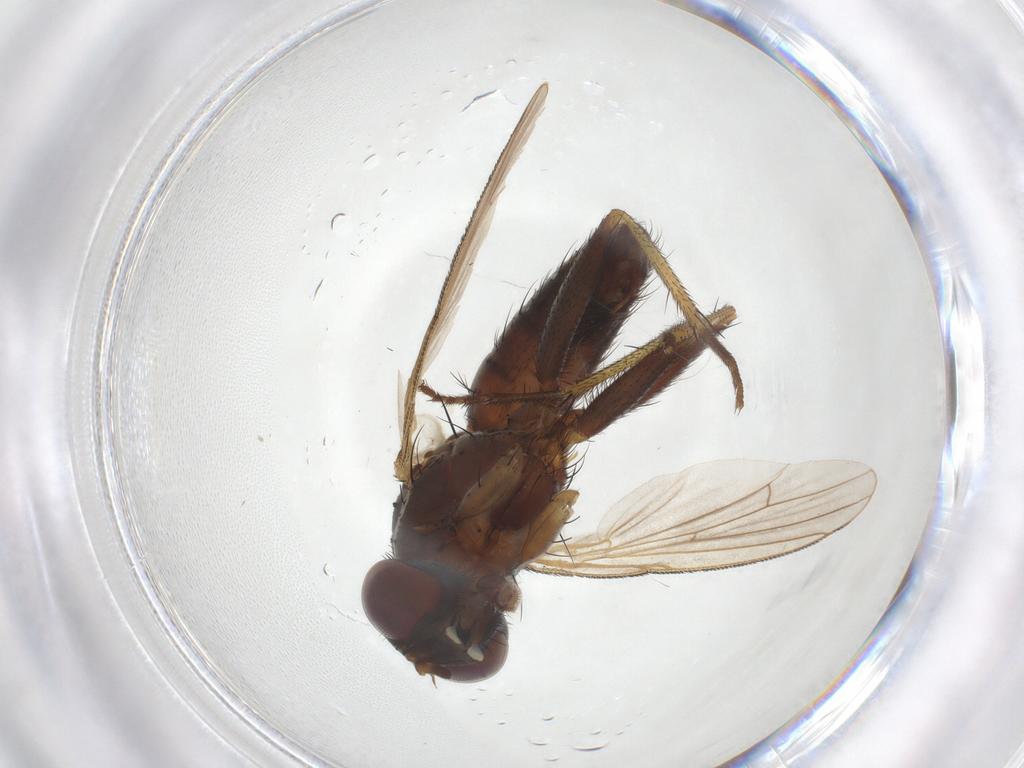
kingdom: Animalia
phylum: Arthropoda
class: Insecta
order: Diptera
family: Muscidae
